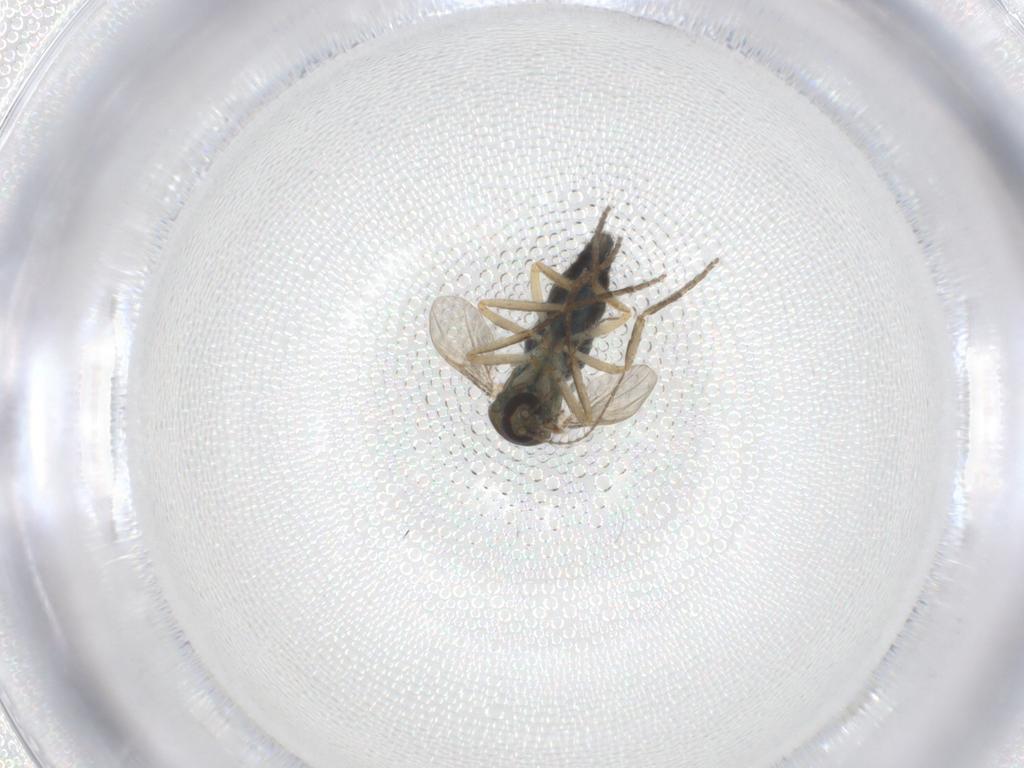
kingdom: Animalia
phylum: Arthropoda
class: Insecta
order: Diptera
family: Ceratopogonidae
